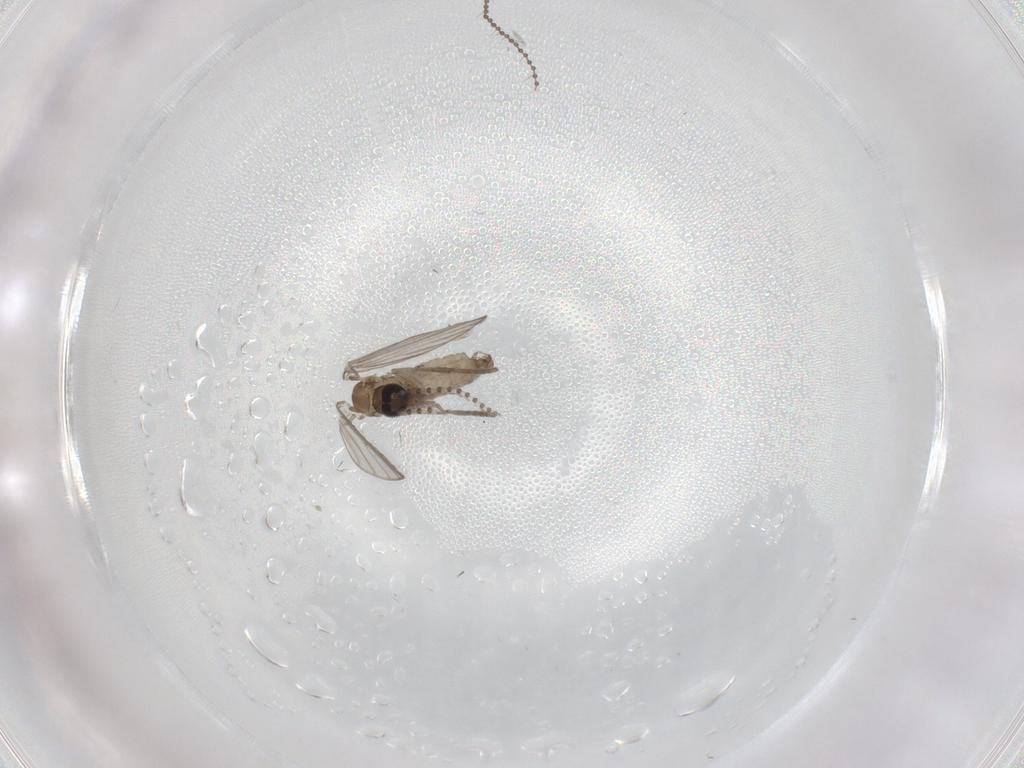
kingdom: Animalia
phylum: Arthropoda
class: Insecta
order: Diptera
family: Psychodidae
